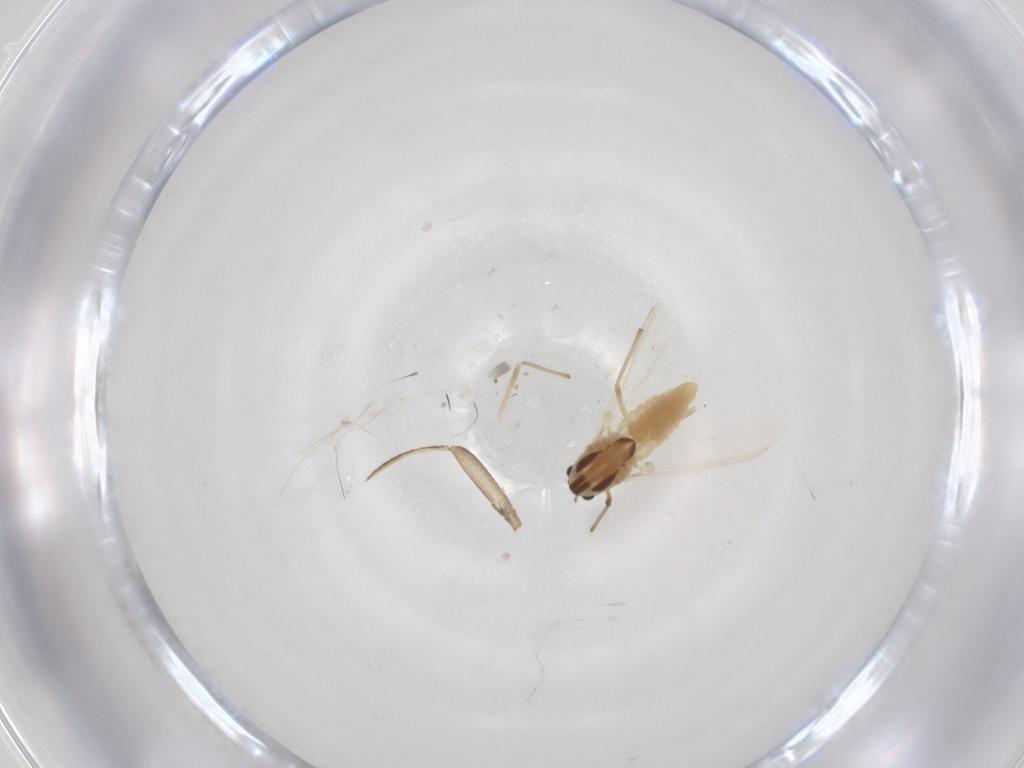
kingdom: Animalia
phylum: Arthropoda
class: Insecta
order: Diptera
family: Chironomidae
